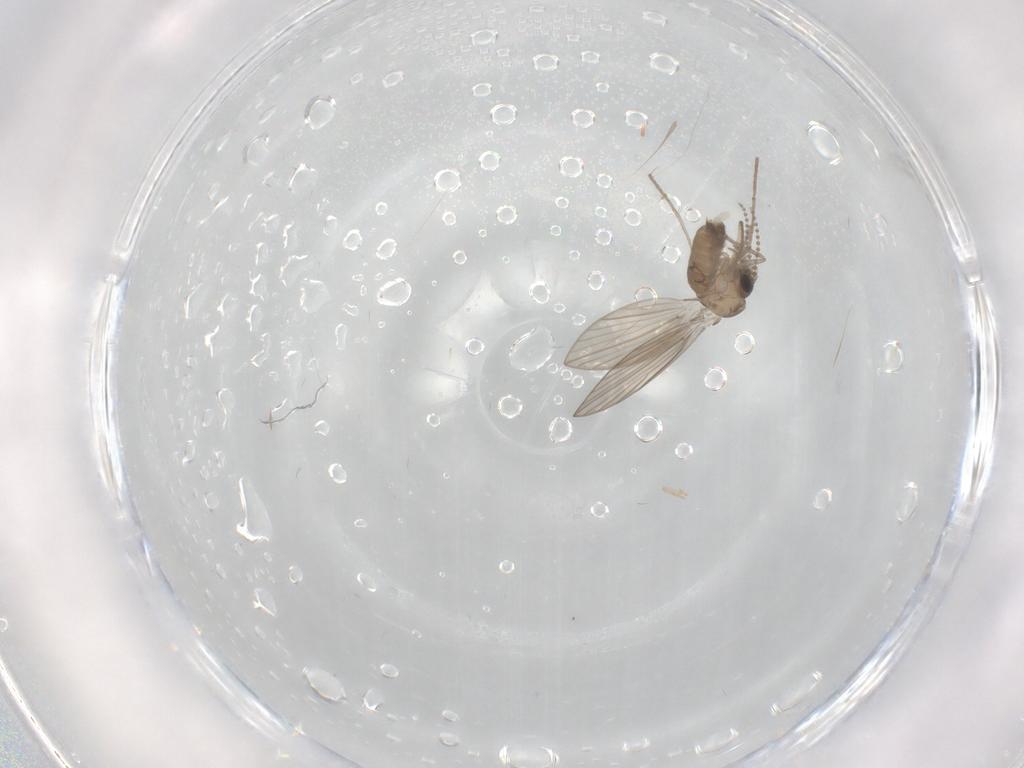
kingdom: Animalia
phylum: Arthropoda
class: Insecta
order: Diptera
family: Psychodidae
